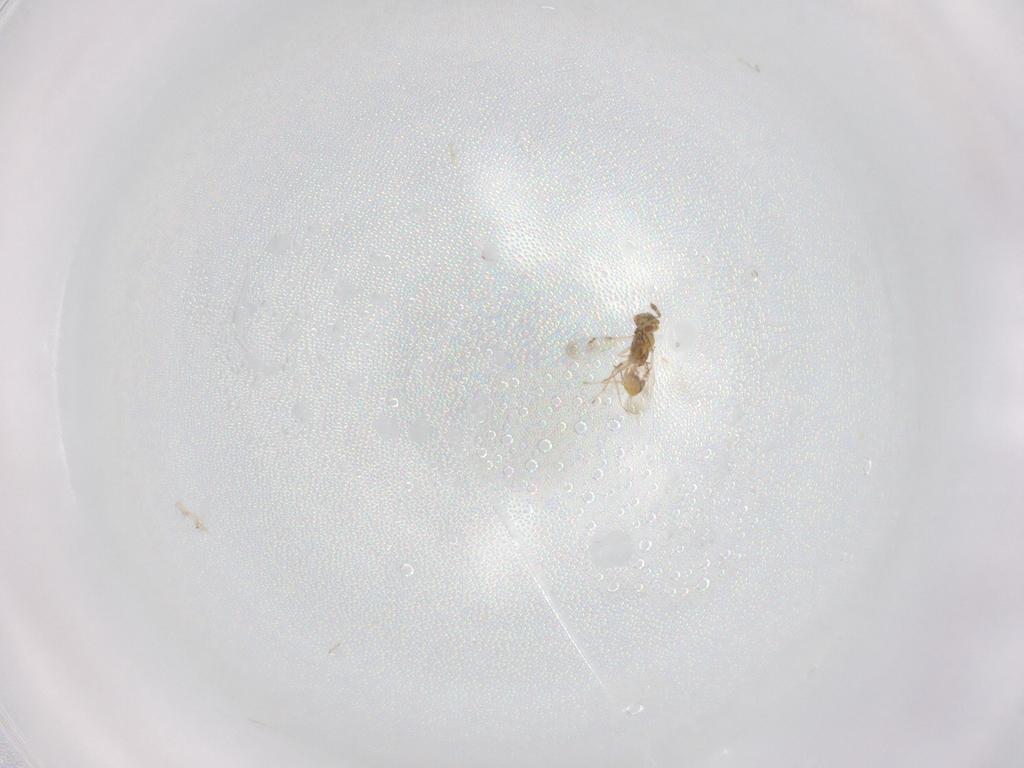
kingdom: Animalia
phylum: Arthropoda
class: Insecta
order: Hymenoptera
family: Eulophidae
